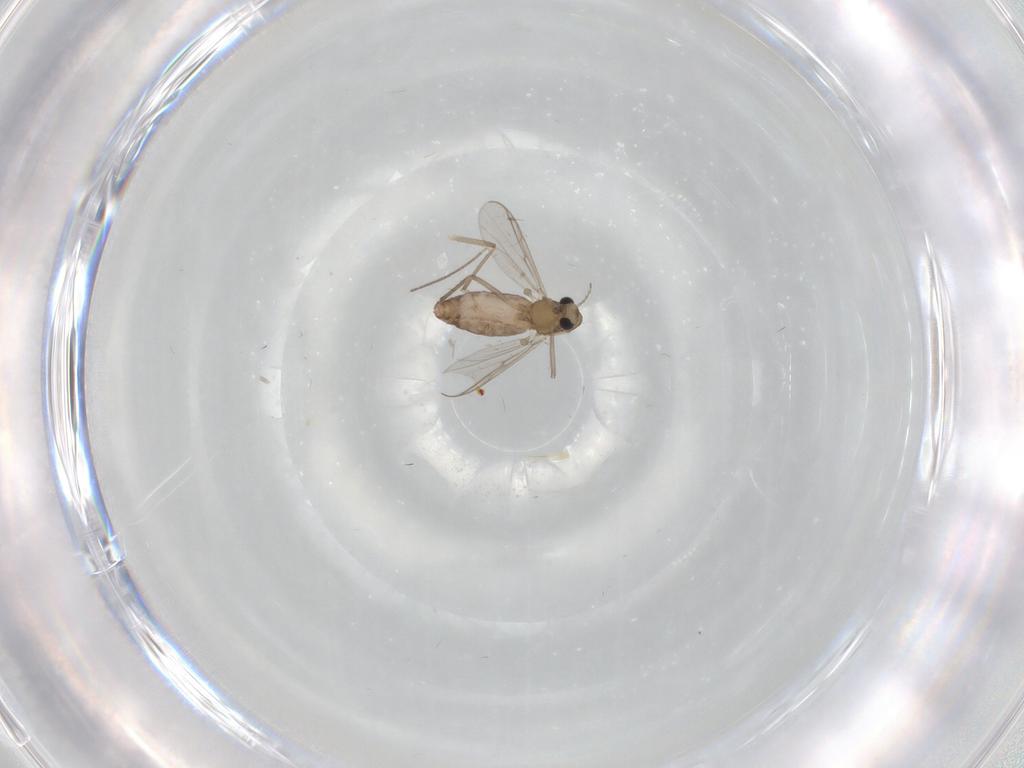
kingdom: Animalia
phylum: Arthropoda
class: Insecta
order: Diptera
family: Chironomidae
